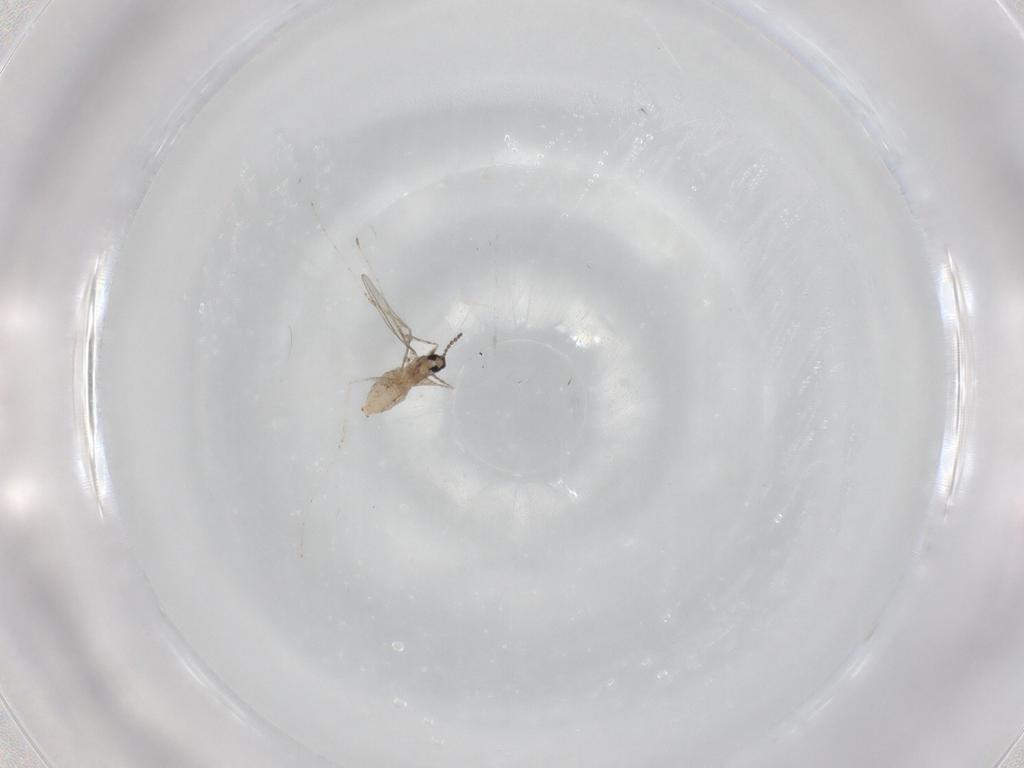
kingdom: Animalia
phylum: Arthropoda
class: Insecta
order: Diptera
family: Cecidomyiidae
